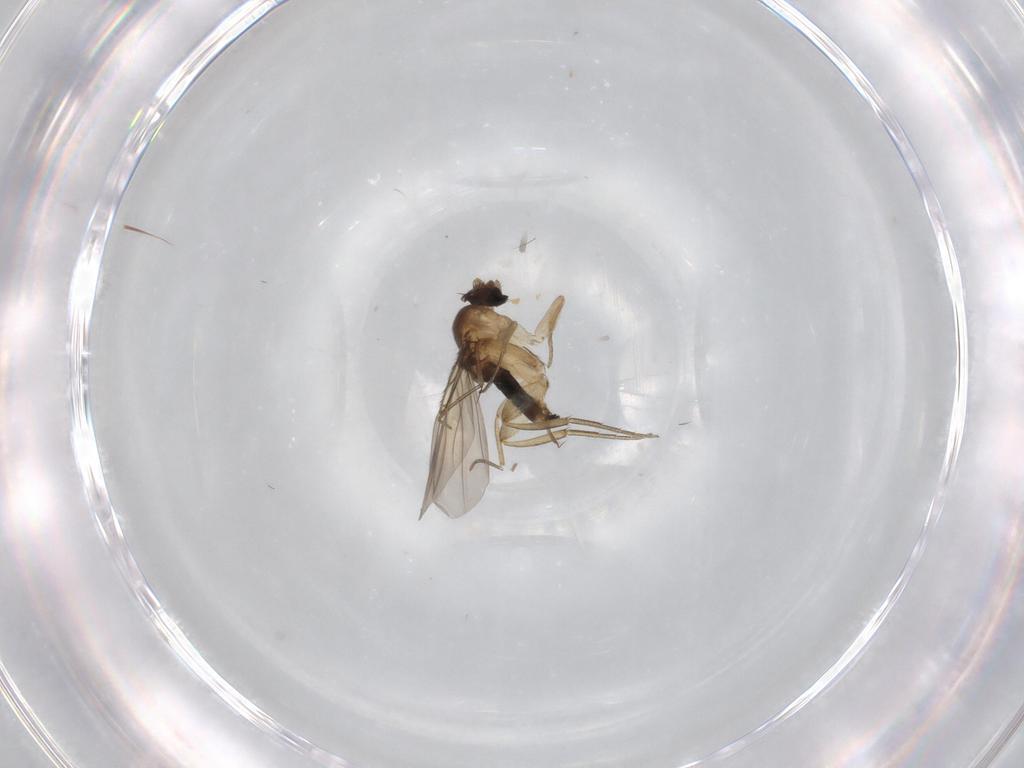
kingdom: Animalia
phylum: Arthropoda
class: Insecta
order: Diptera
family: Phoridae
